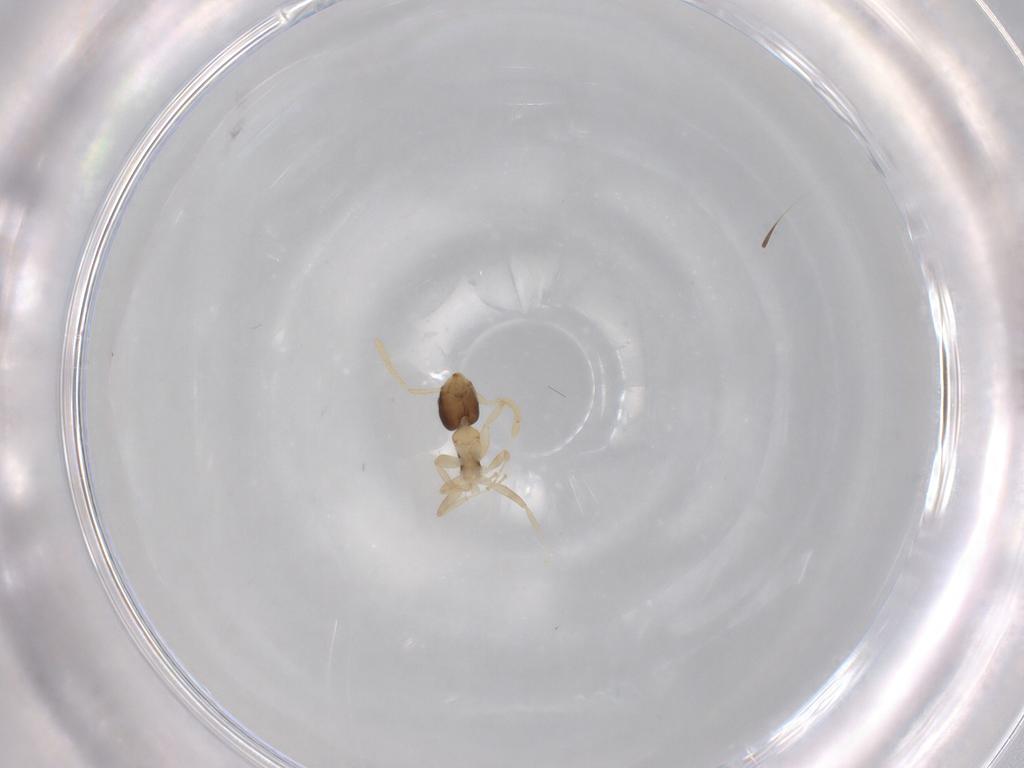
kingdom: Animalia
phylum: Arthropoda
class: Insecta
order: Hymenoptera
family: Formicidae
